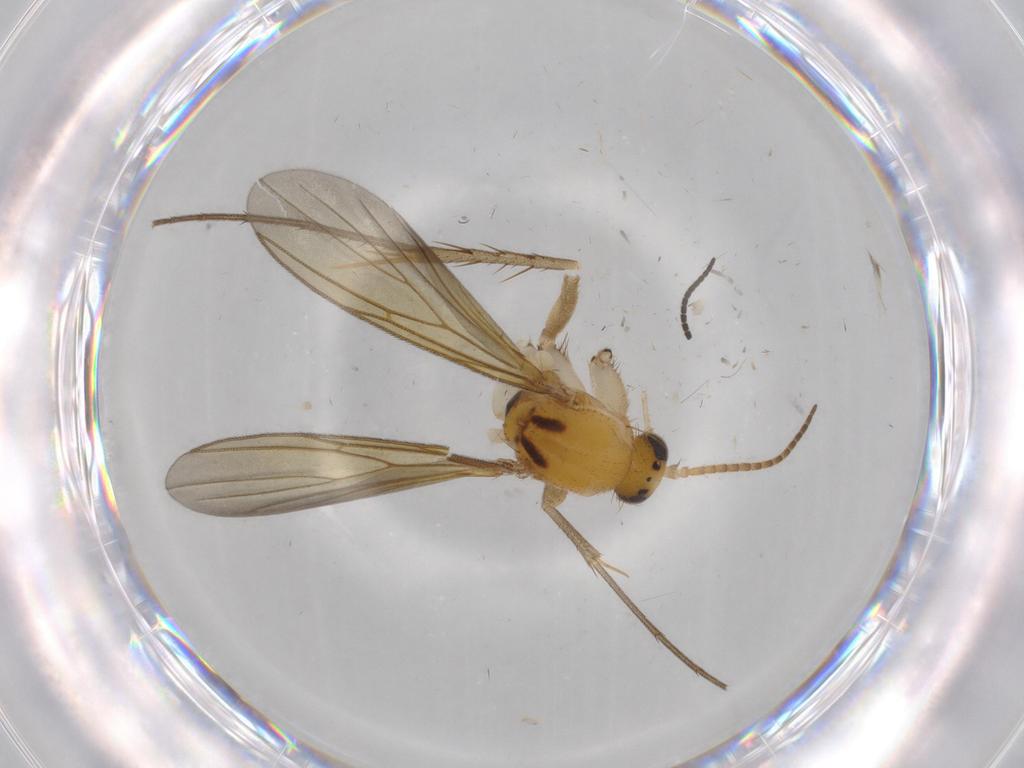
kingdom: Animalia
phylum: Arthropoda
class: Insecta
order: Diptera
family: Cecidomyiidae
